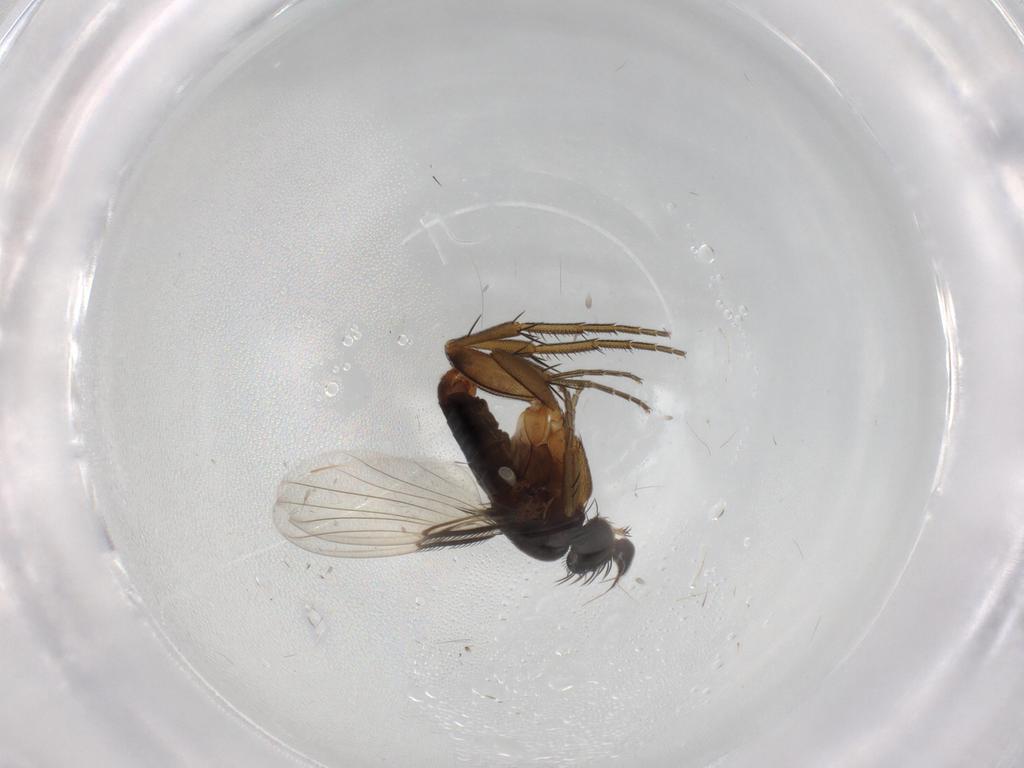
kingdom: Animalia
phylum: Arthropoda
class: Insecta
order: Diptera
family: Phoridae
